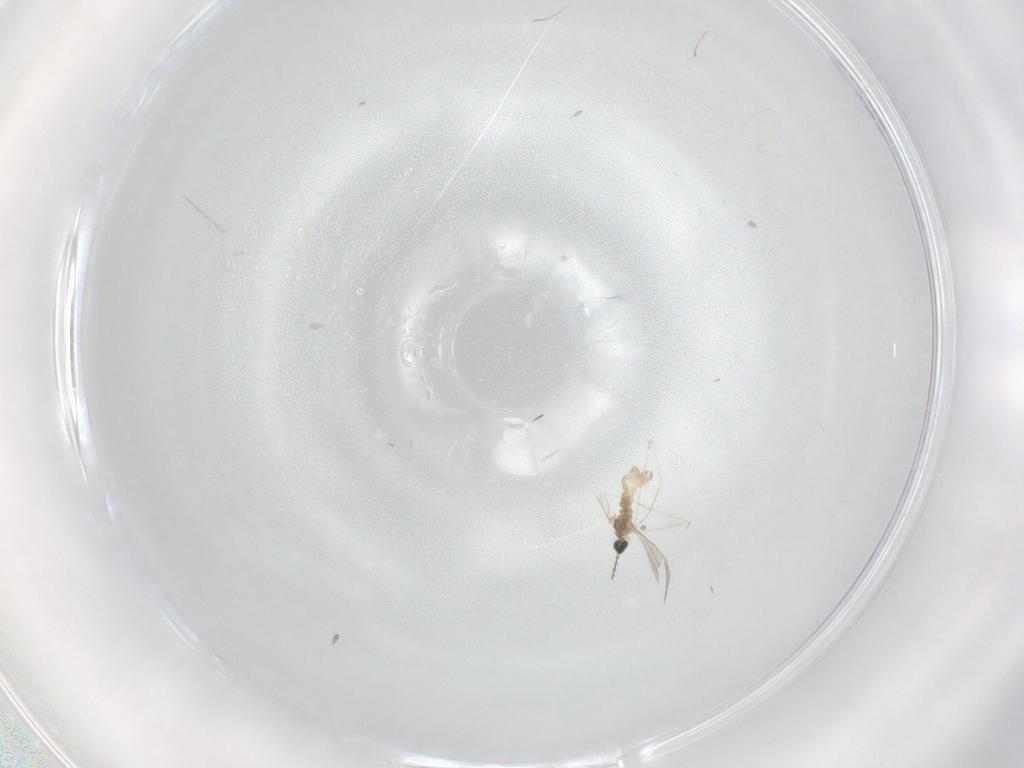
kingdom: Animalia
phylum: Arthropoda
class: Insecta
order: Diptera
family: Cecidomyiidae
